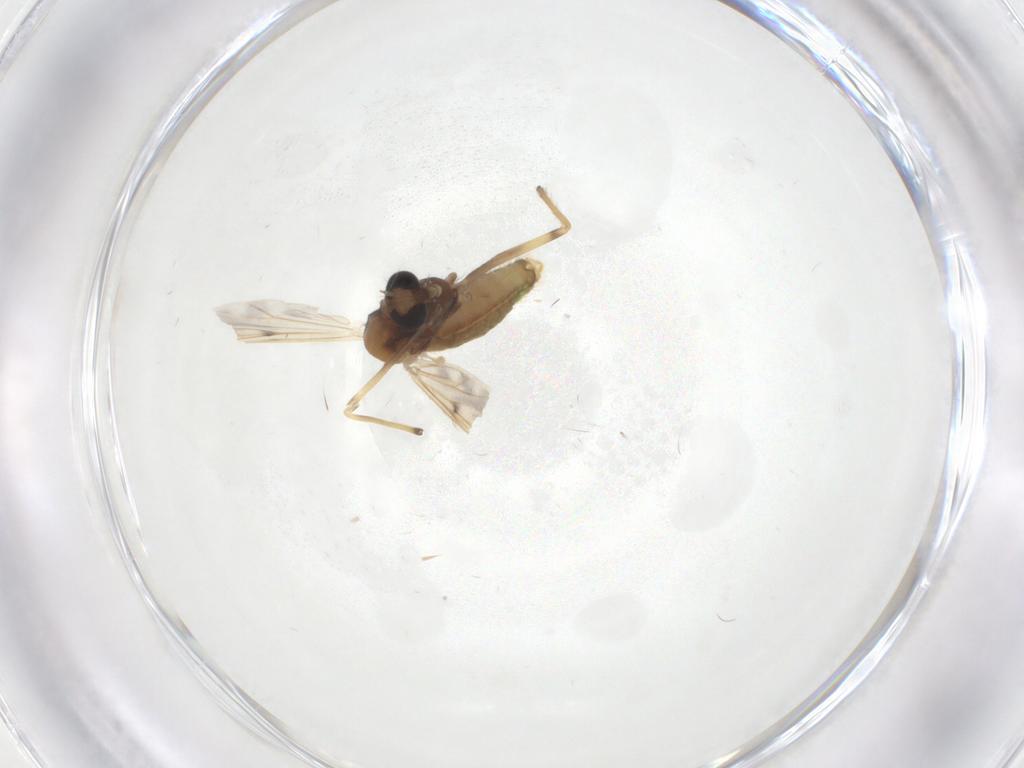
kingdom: Animalia
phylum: Arthropoda
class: Insecta
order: Diptera
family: Chironomidae
